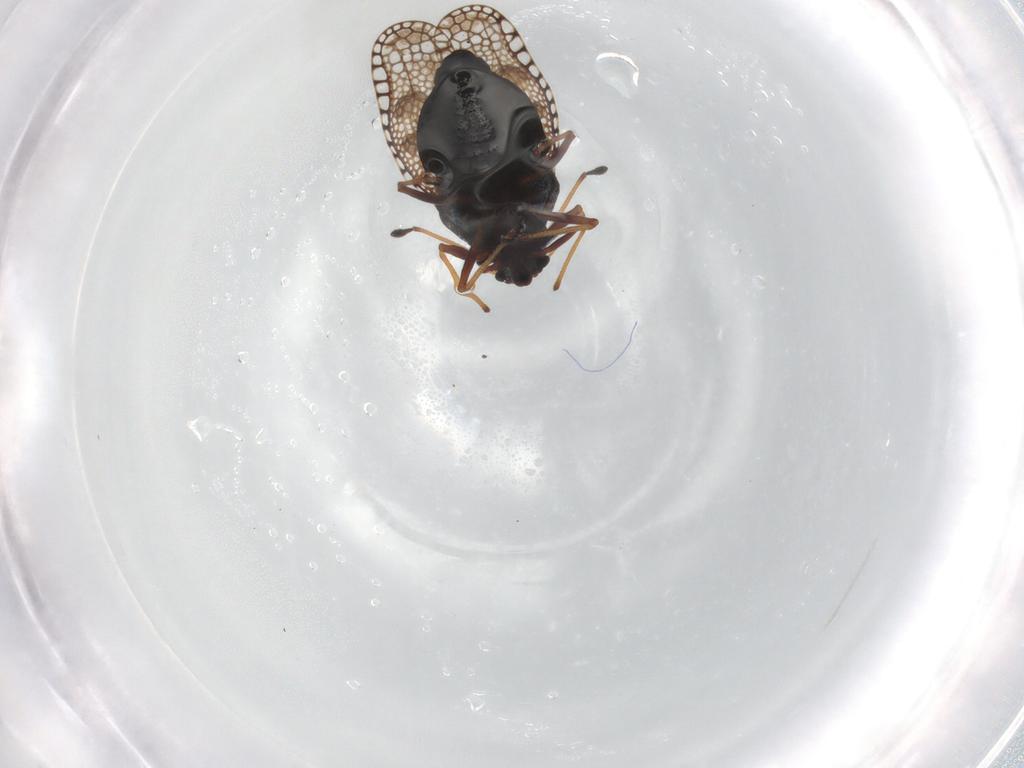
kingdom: Animalia
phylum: Arthropoda
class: Insecta
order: Hemiptera
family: Tingidae
